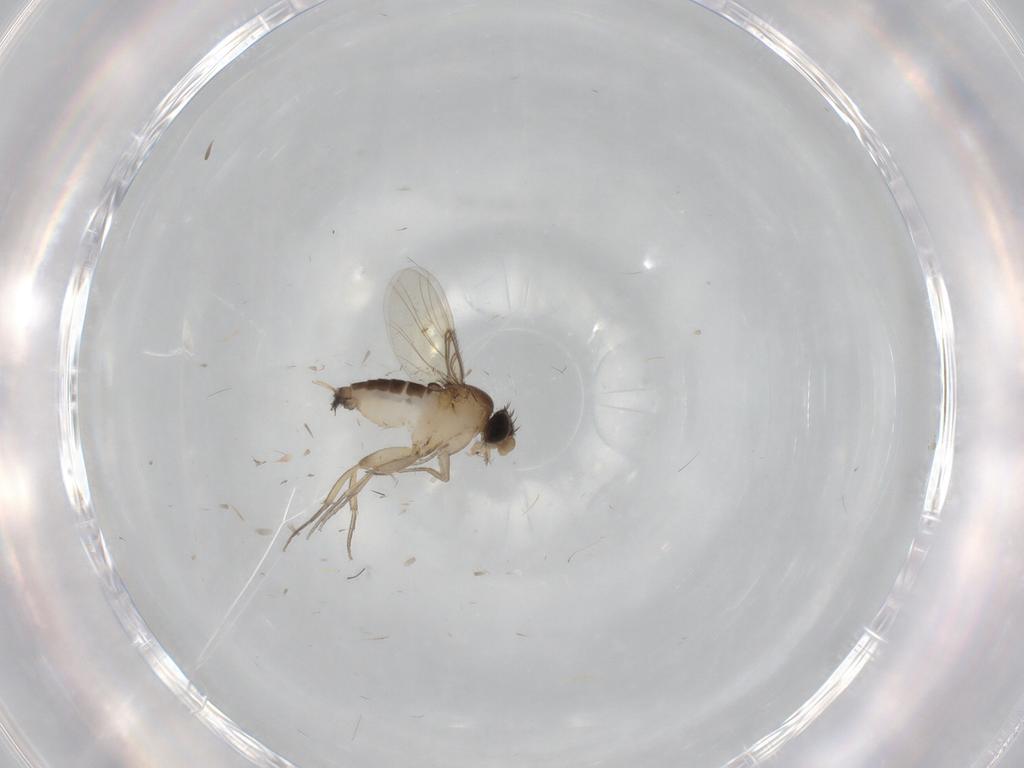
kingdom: Animalia
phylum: Arthropoda
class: Insecta
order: Diptera
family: Phoridae
